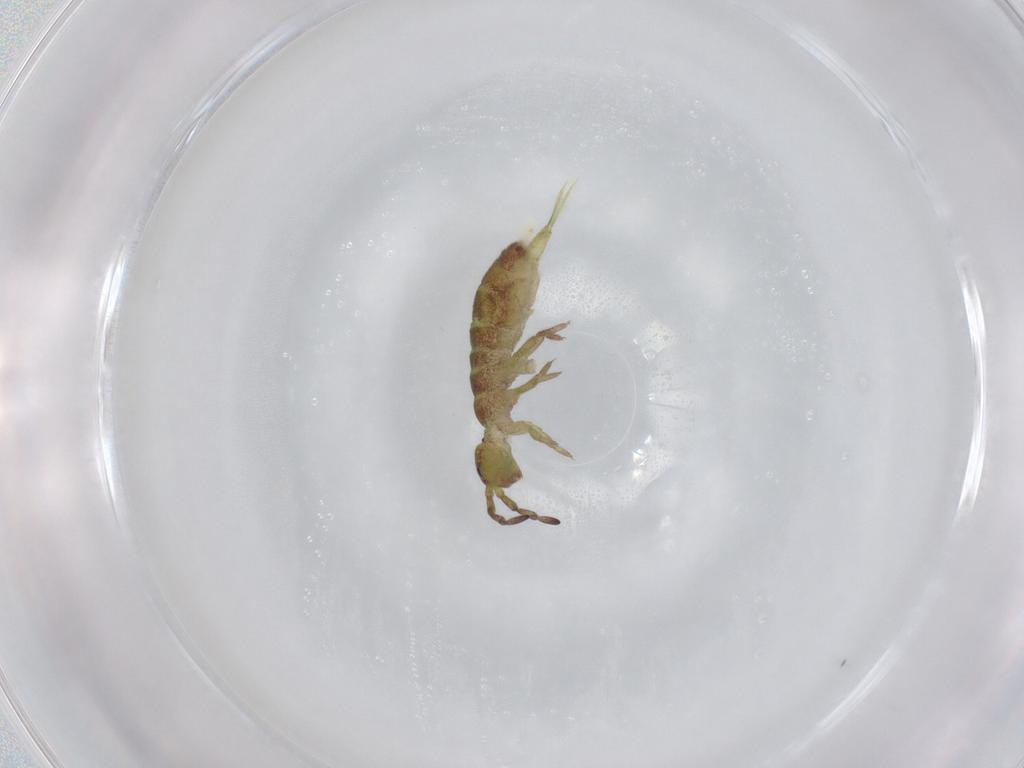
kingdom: Animalia
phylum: Arthropoda
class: Collembola
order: Entomobryomorpha
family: Isotomidae
